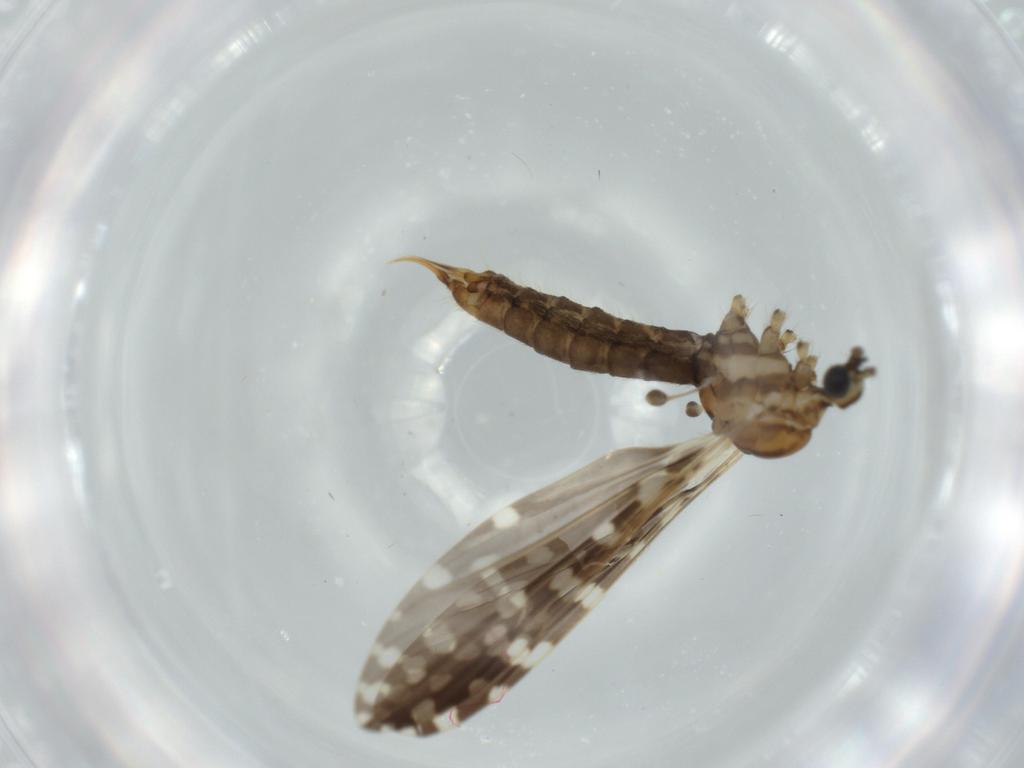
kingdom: Animalia
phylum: Arthropoda
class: Insecta
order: Diptera
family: Limoniidae
